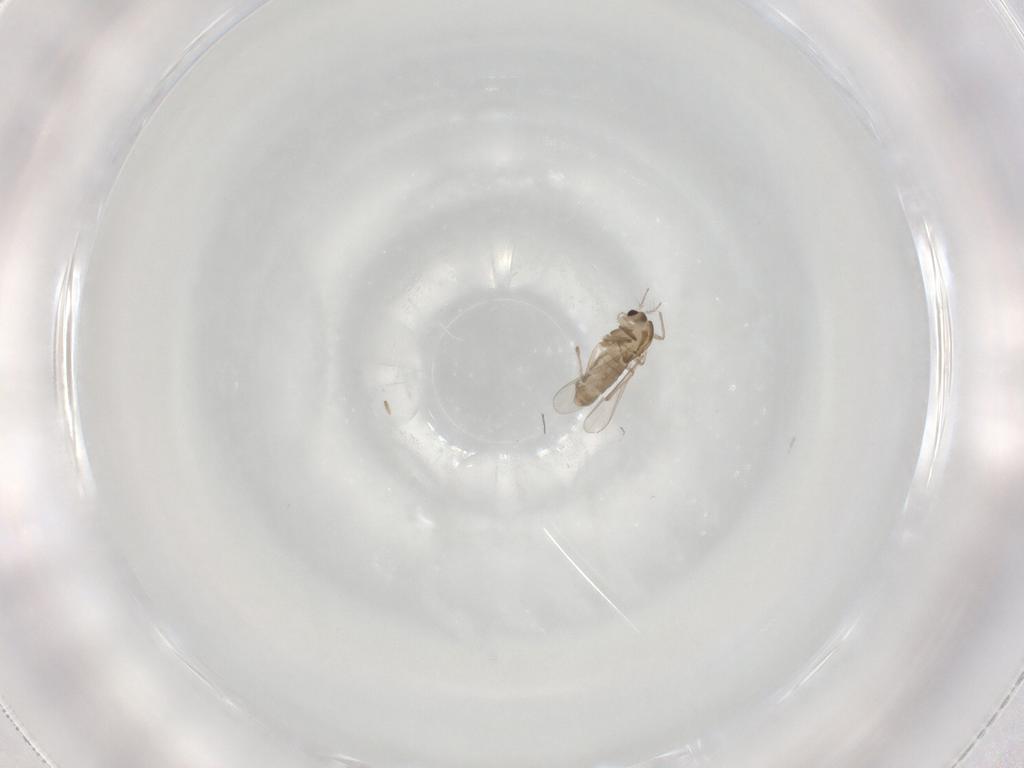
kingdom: Animalia
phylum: Arthropoda
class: Insecta
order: Diptera
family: Chironomidae
